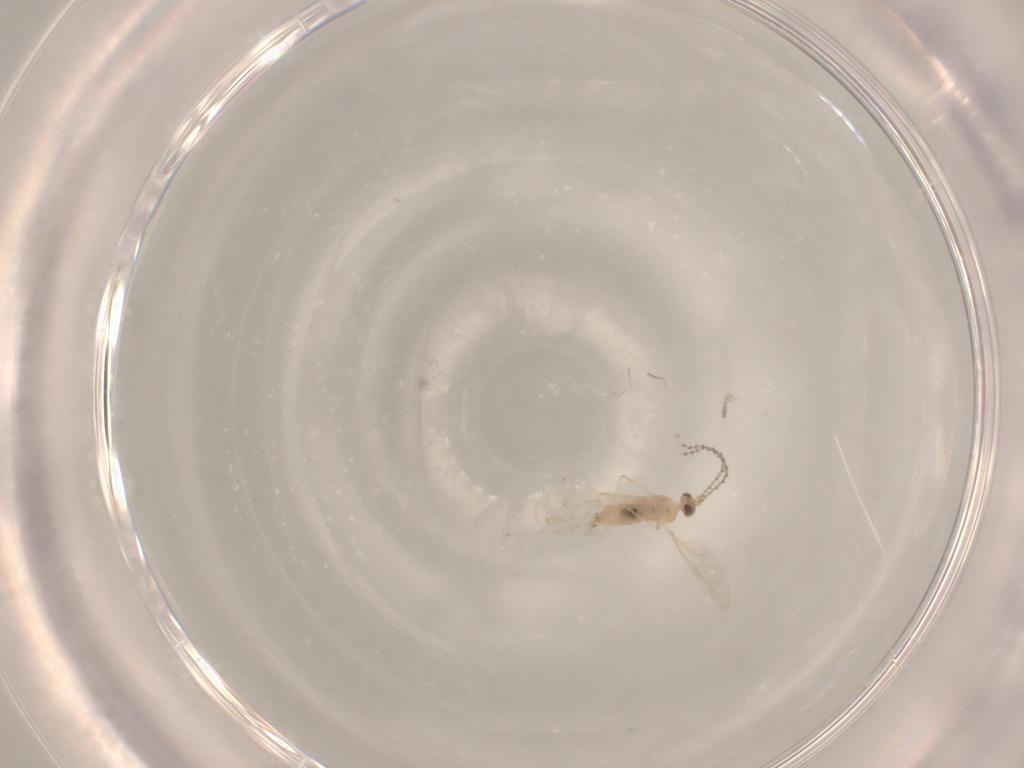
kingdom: Animalia
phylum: Arthropoda
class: Insecta
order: Diptera
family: Cecidomyiidae
